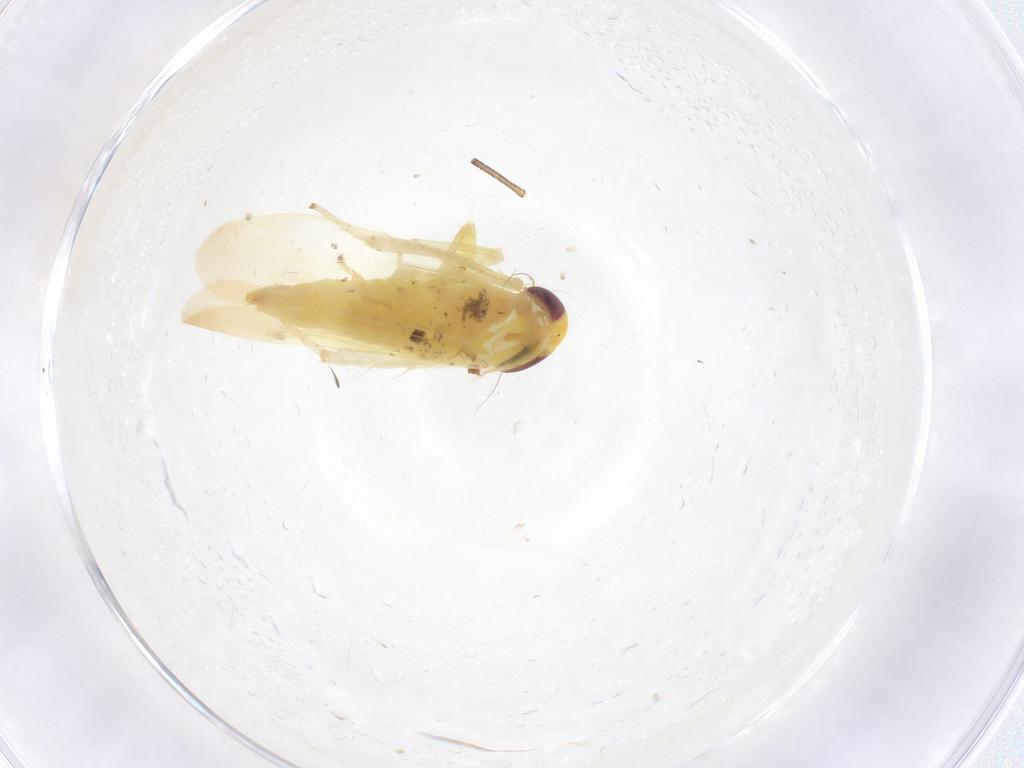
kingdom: Animalia
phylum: Arthropoda
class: Insecta
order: Hemiptera
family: Cicadellidae
